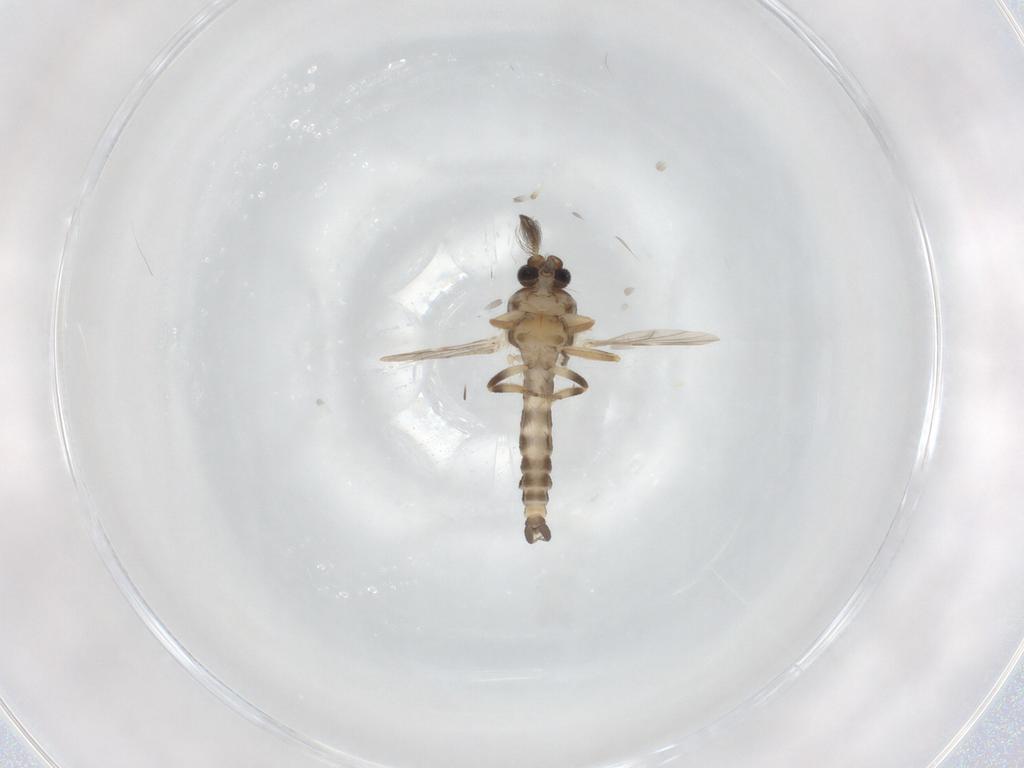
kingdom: Animalia
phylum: Arthropoda
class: Insecta
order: Diptera
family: Ceratopogonidae
